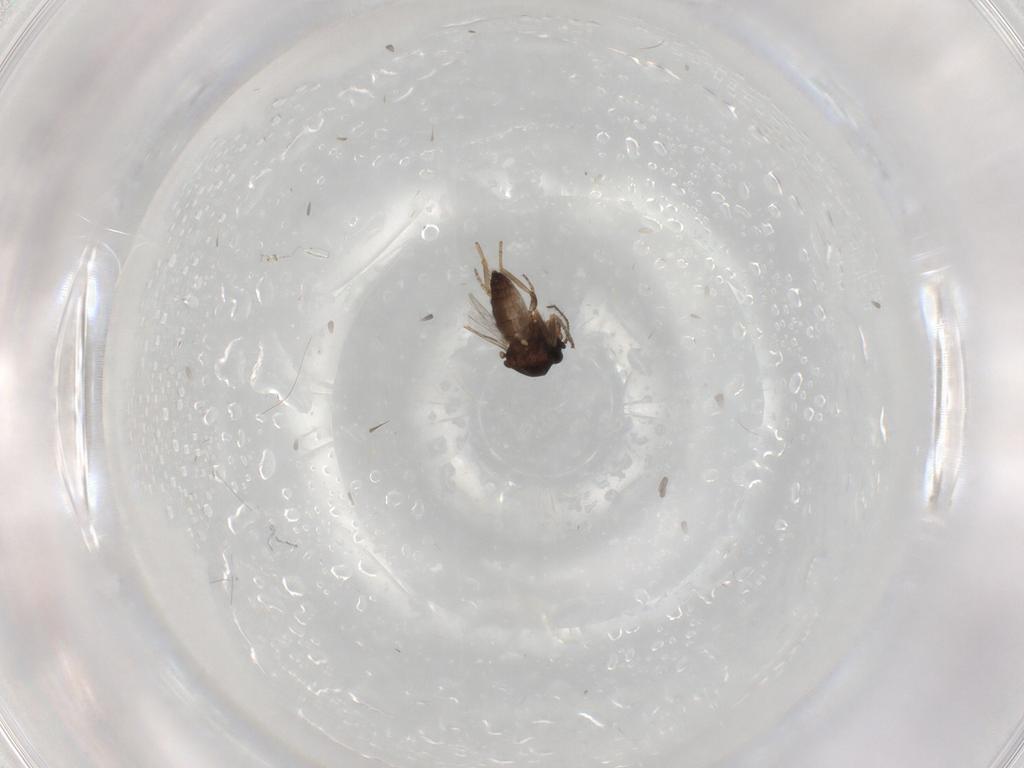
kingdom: Animalia
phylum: Arthropoda
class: Insecta
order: Diptera
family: Ceratopogonidae
